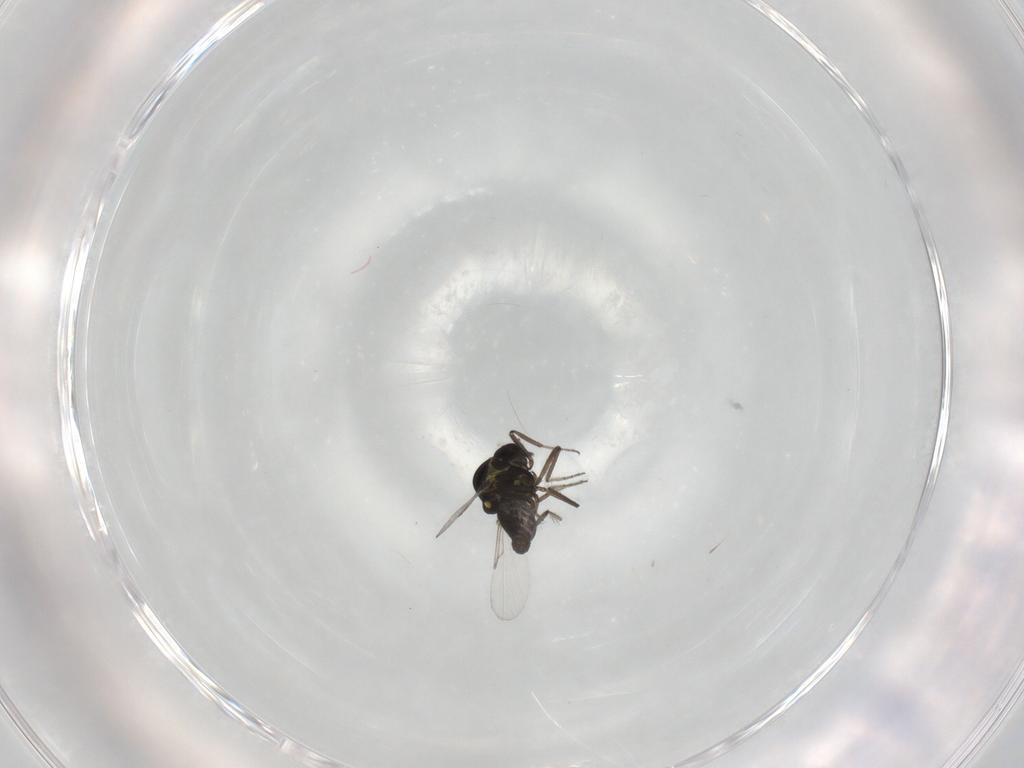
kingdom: Animalia
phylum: Arthropoda
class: Insecta
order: Diptera
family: Ceratopogonidae
